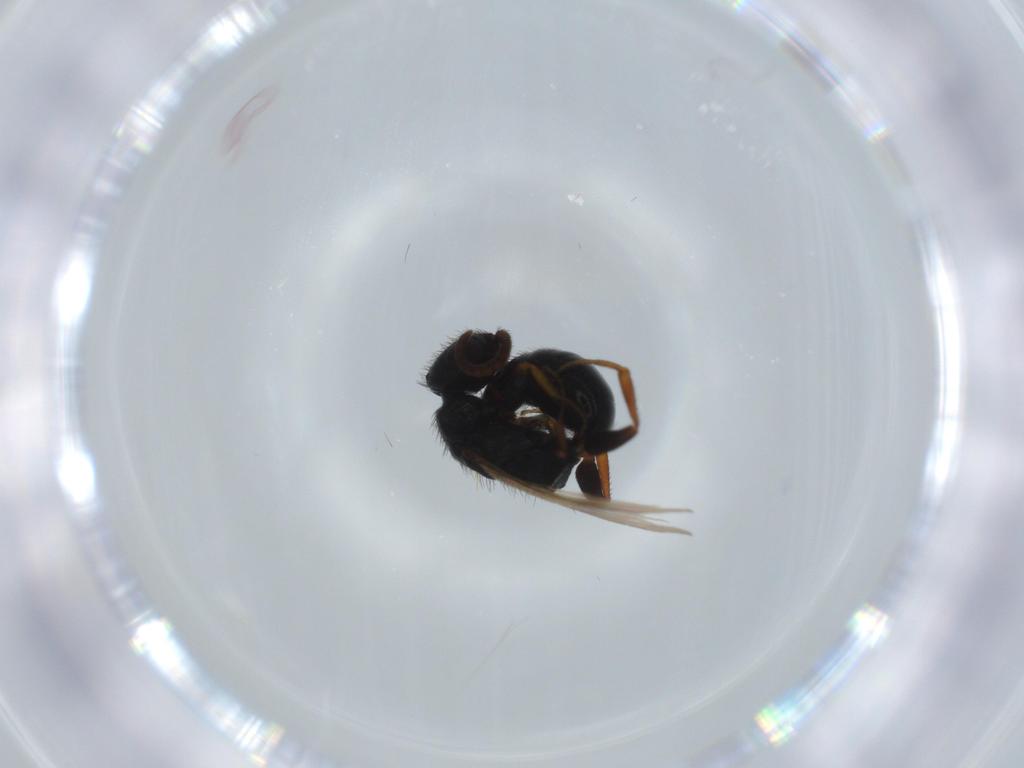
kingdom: Animalia
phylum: Arthropoda
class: Insecta
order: Hymenoptera
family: Bethylidae
